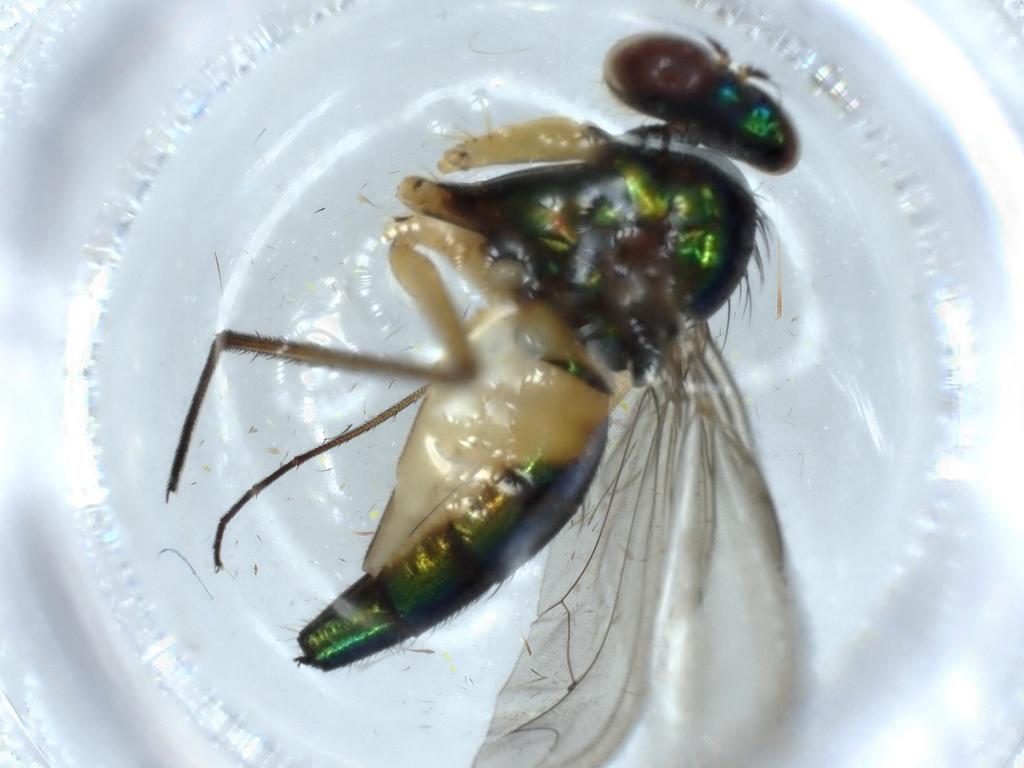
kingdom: Animalia
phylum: Arthropoda
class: Insecta
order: Diptera
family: Dolichopodidae
